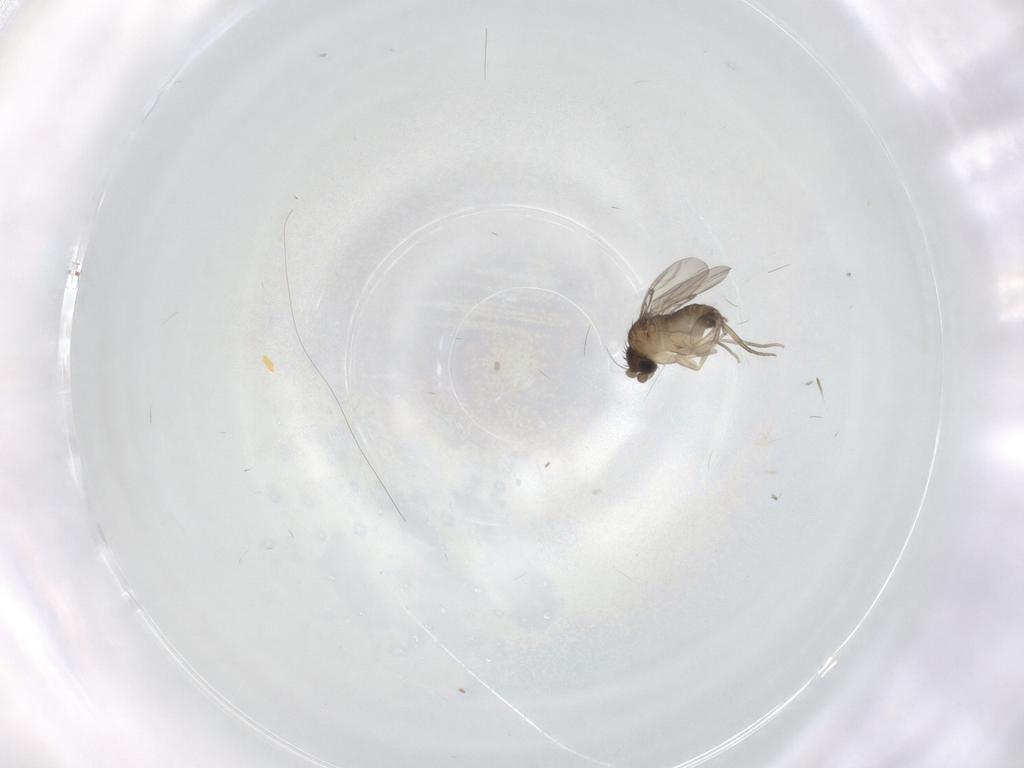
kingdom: Animalia
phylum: Arthropoda
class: Insecta
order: Diptera
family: Phoridae
